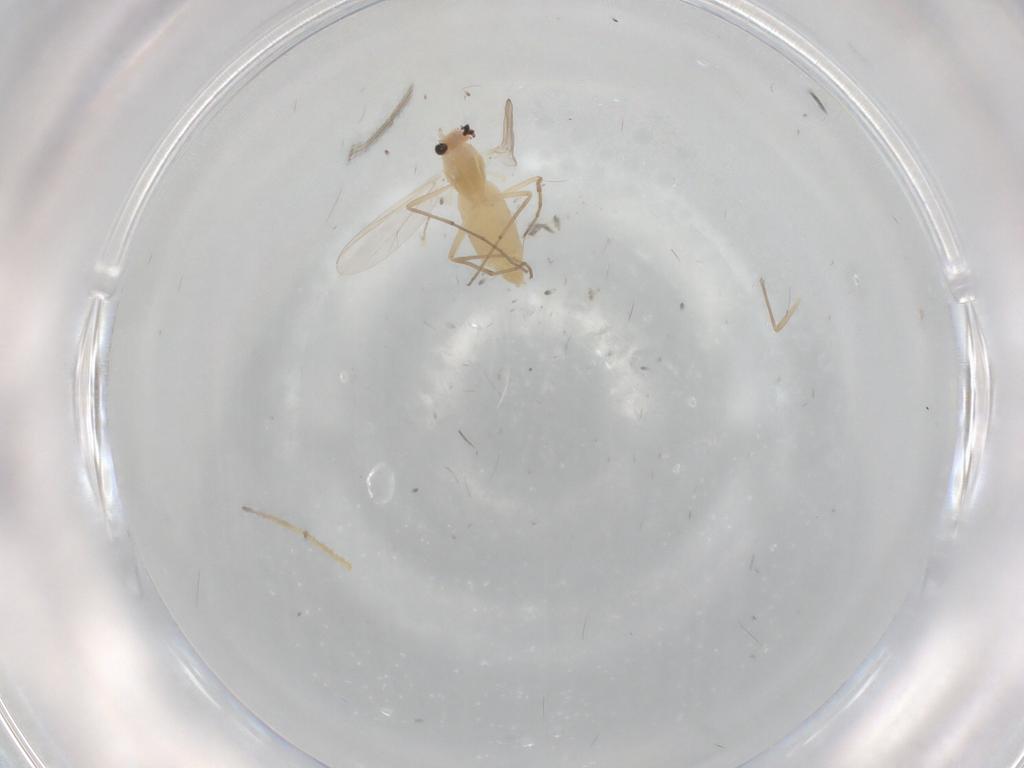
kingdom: Animalia
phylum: Arthropoda
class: Insecta
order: Diptera
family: Chironomidae
